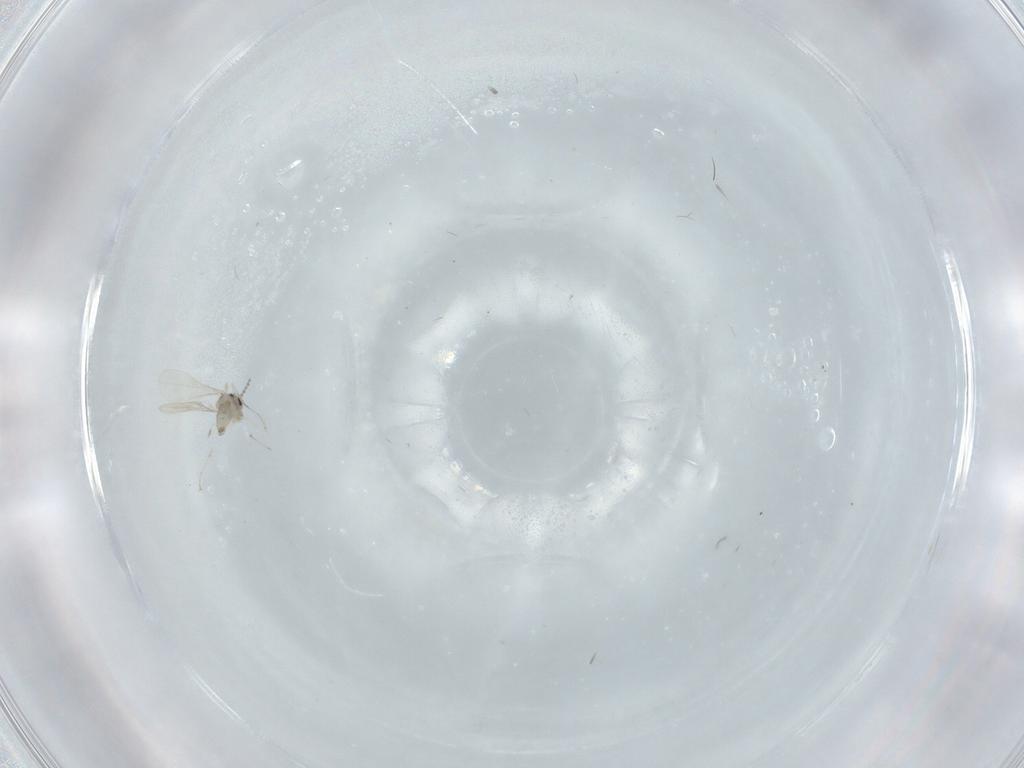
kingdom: Animalia
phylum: Arthropoda
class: Insecta
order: Diptera
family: Cecidomyiidae
